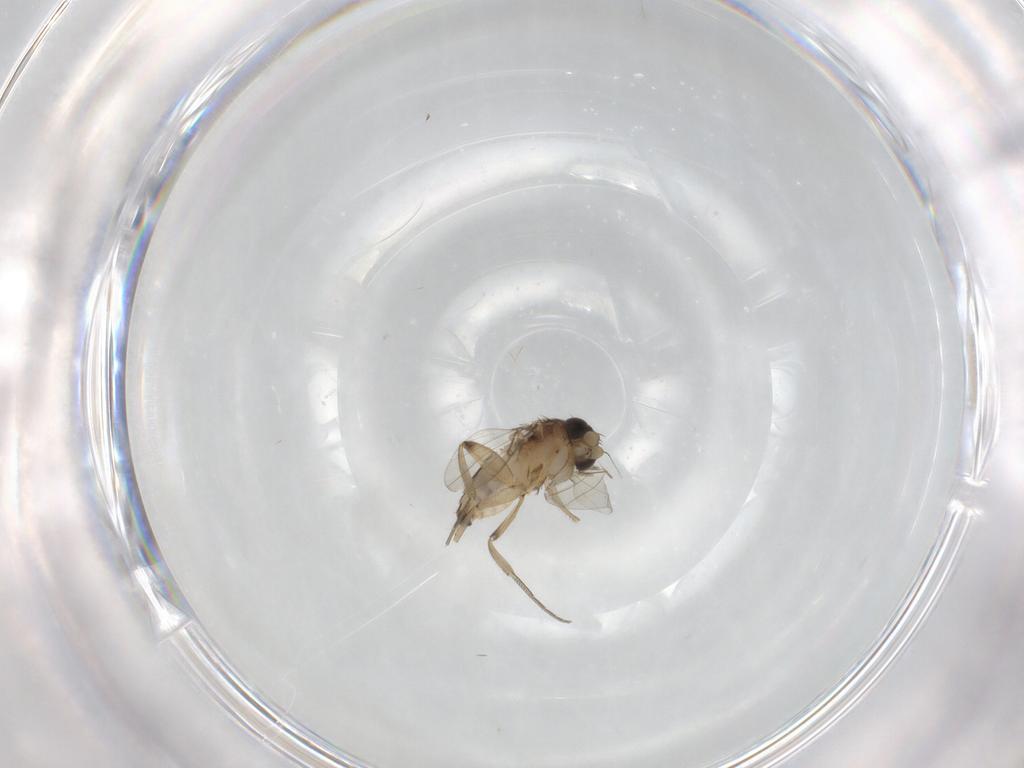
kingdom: Animalia
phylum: Arthropoda
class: Insecta
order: Diptera
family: Phoridae
